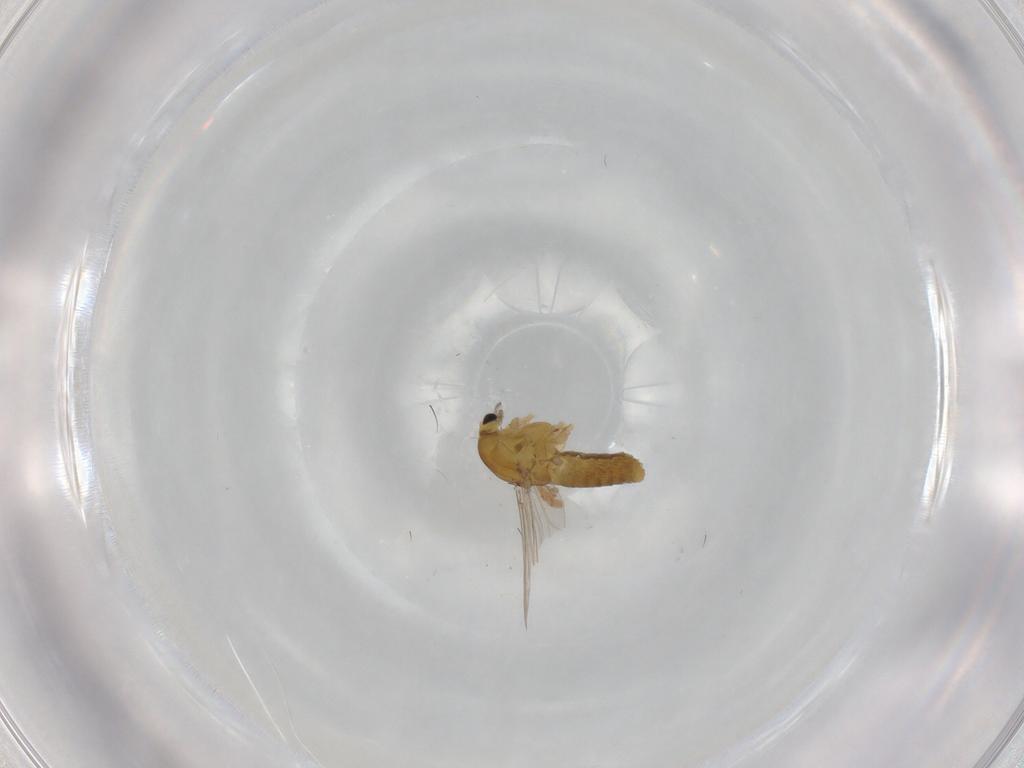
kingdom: Animalia
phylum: Arthropoda
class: Insecta
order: Diptera
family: Chironomidae
